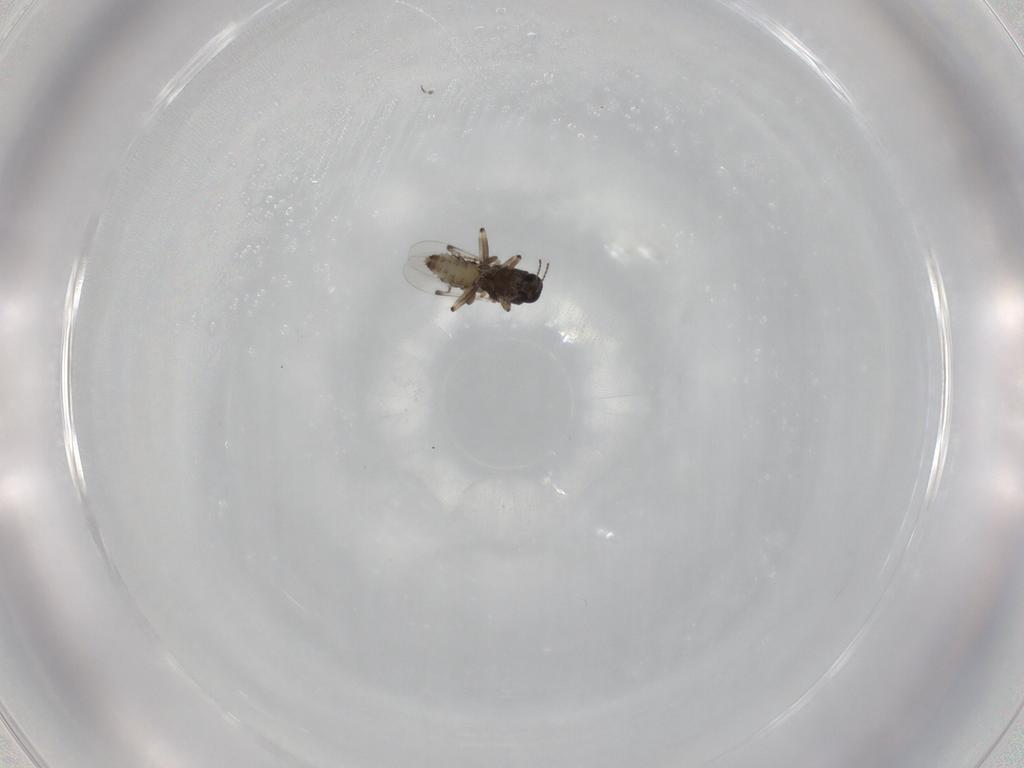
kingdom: Animalia
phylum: Arthropoda
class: Insecta
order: Diptera
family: Ceratopogonidae
